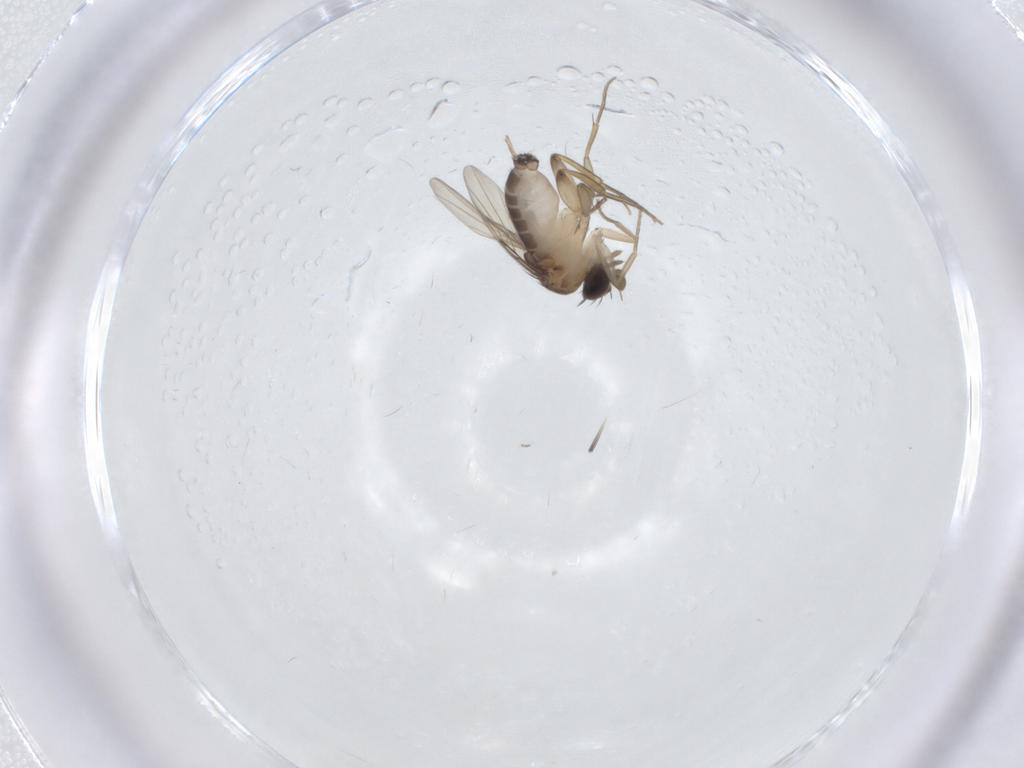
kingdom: Animalia
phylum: Arthropoda
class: Insecta
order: Diptera
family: Phoridae
